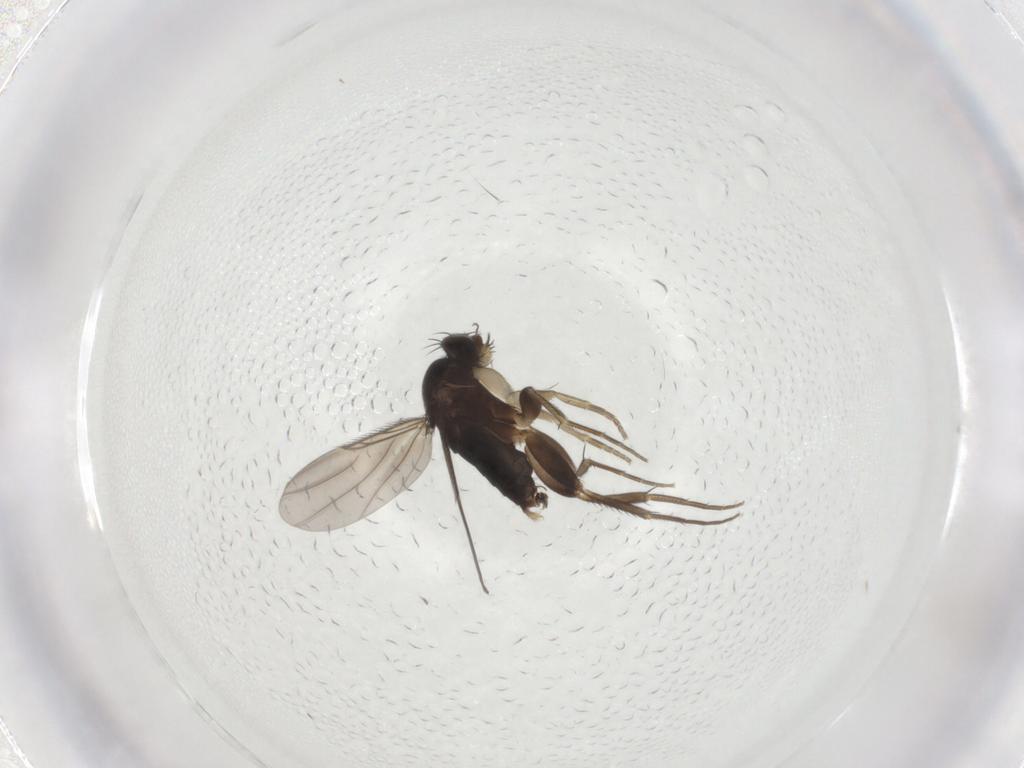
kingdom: Animalia
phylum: Arthropoda
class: Insecta
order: Diptera
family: Phoridae
